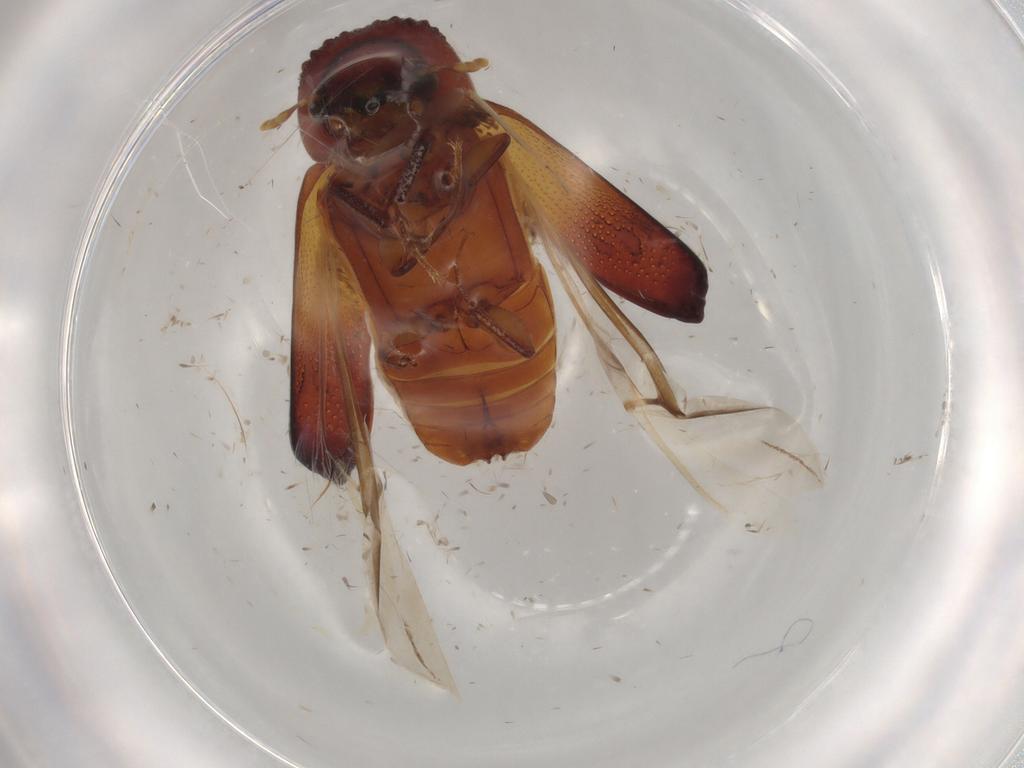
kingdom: Animalia
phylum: Arthropoda
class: Insecta
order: Coleoptera
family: Bostrichidae
